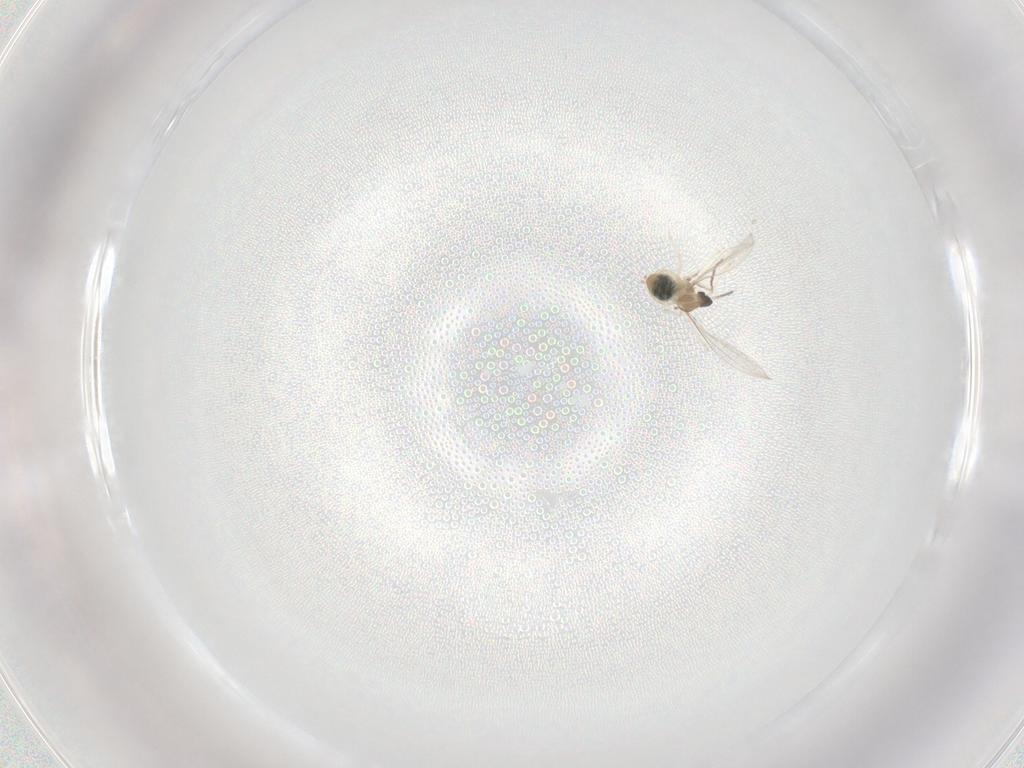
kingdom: Animalia
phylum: Arthropoda
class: Insecta
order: Diptera
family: Cecidomyiidae
